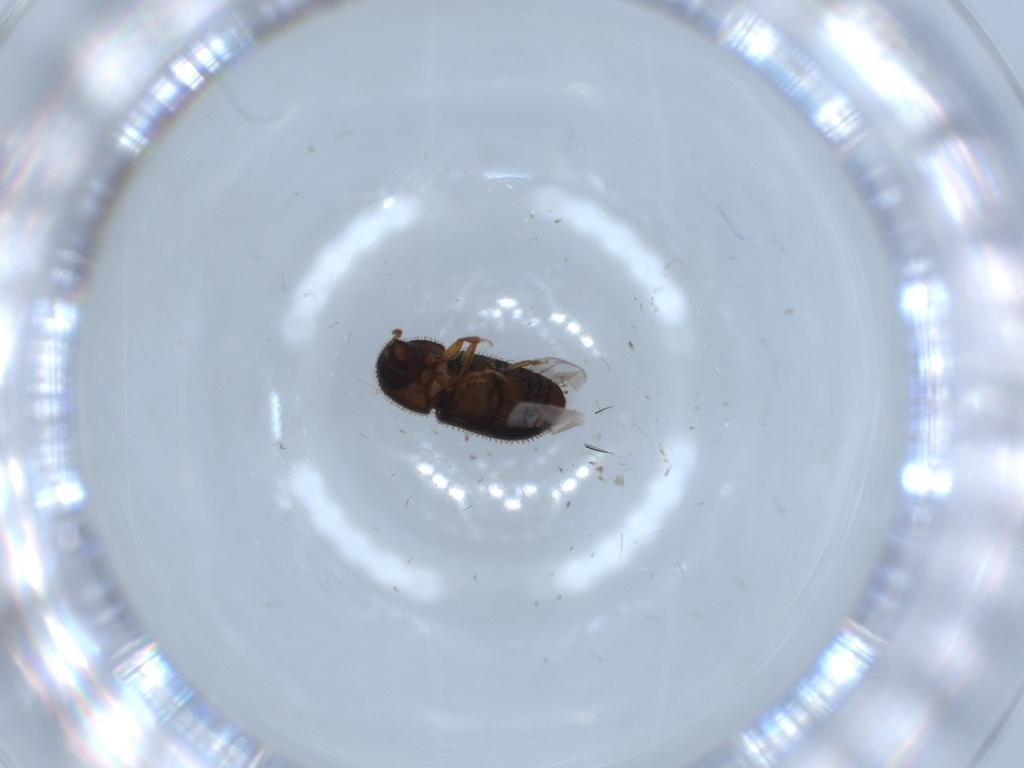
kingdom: Animalia
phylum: Arthropoda
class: Insecta
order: Coleoptera
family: Curculionidae
